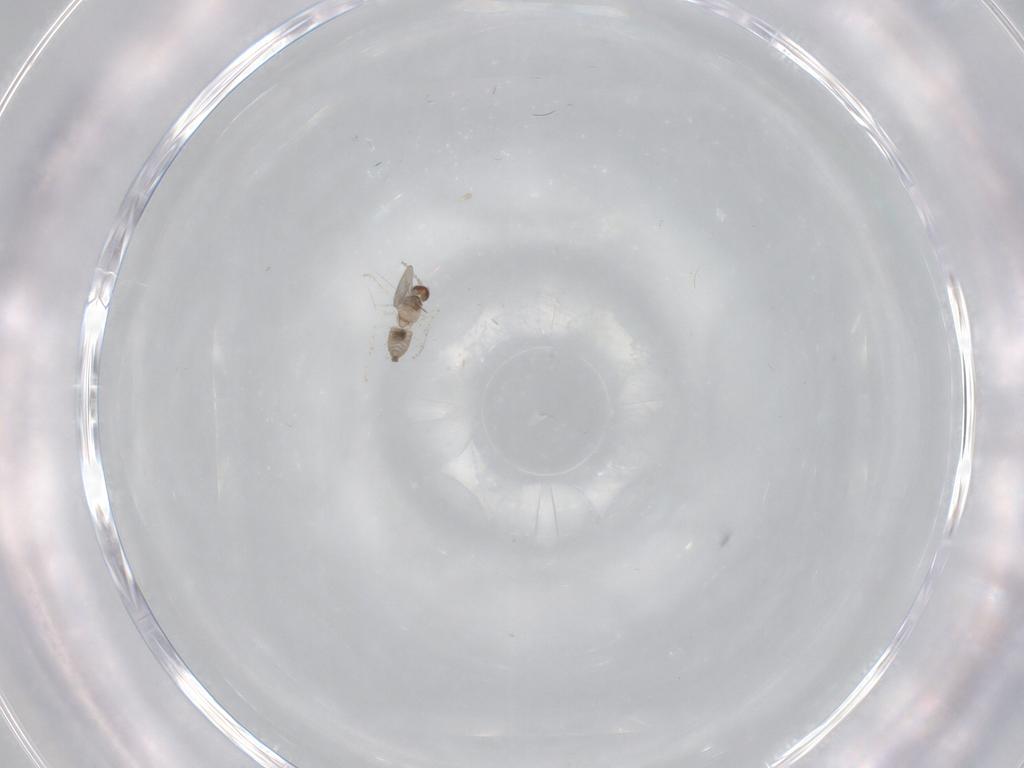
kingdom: Animalia
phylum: Arthropoda
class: Insecta
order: Diptera
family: Cecidomyiidae
